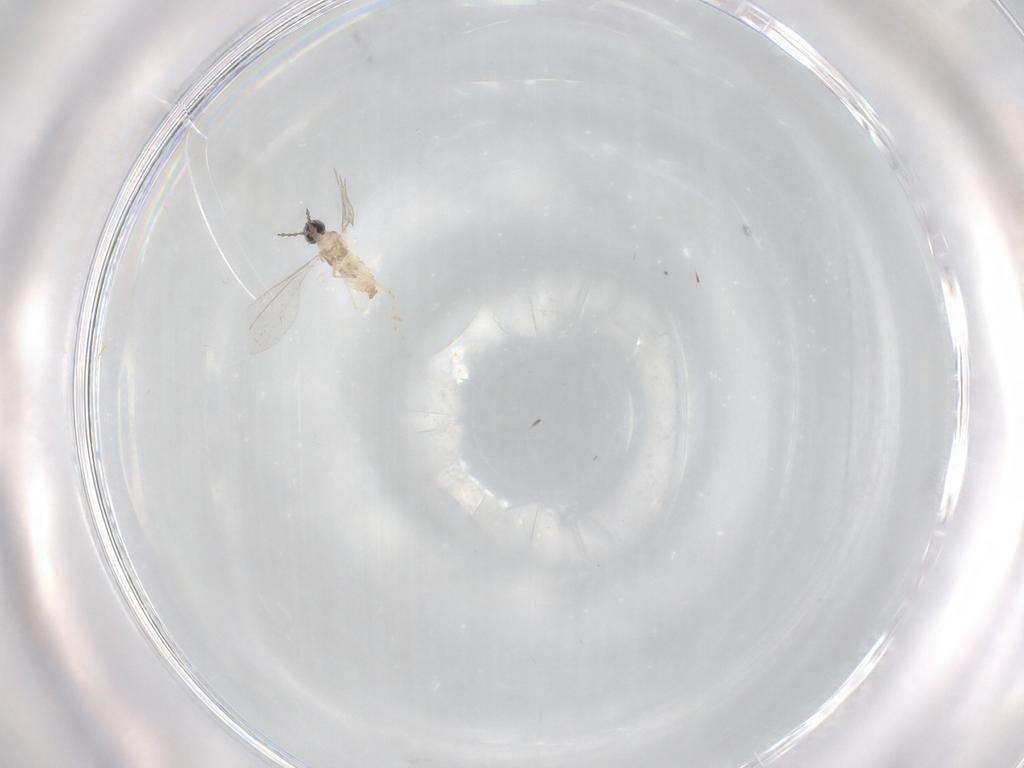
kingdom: Animalia
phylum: Arthropoda
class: Insecta
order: Diptera
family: Cecidomyiidae
